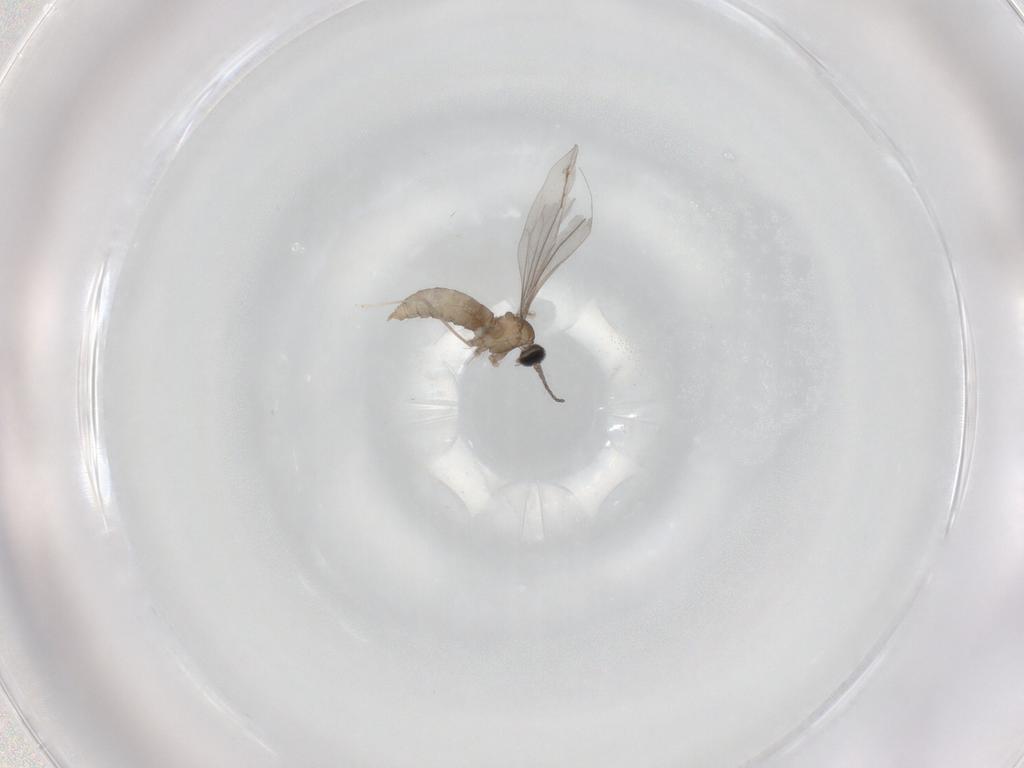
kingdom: Animalia
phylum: Arthropoda
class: Insecta
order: Diptera
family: Cecidomyiidae
